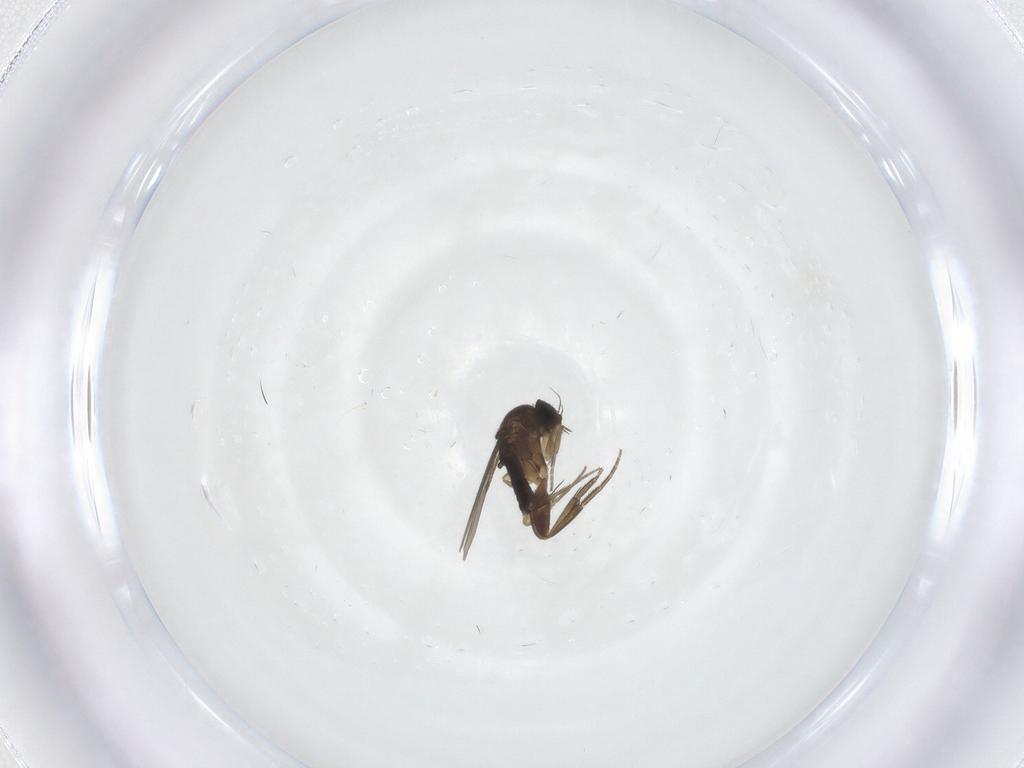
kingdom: Animalia
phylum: Arthropoda
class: Insecta
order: Diptera
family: Phoridae
